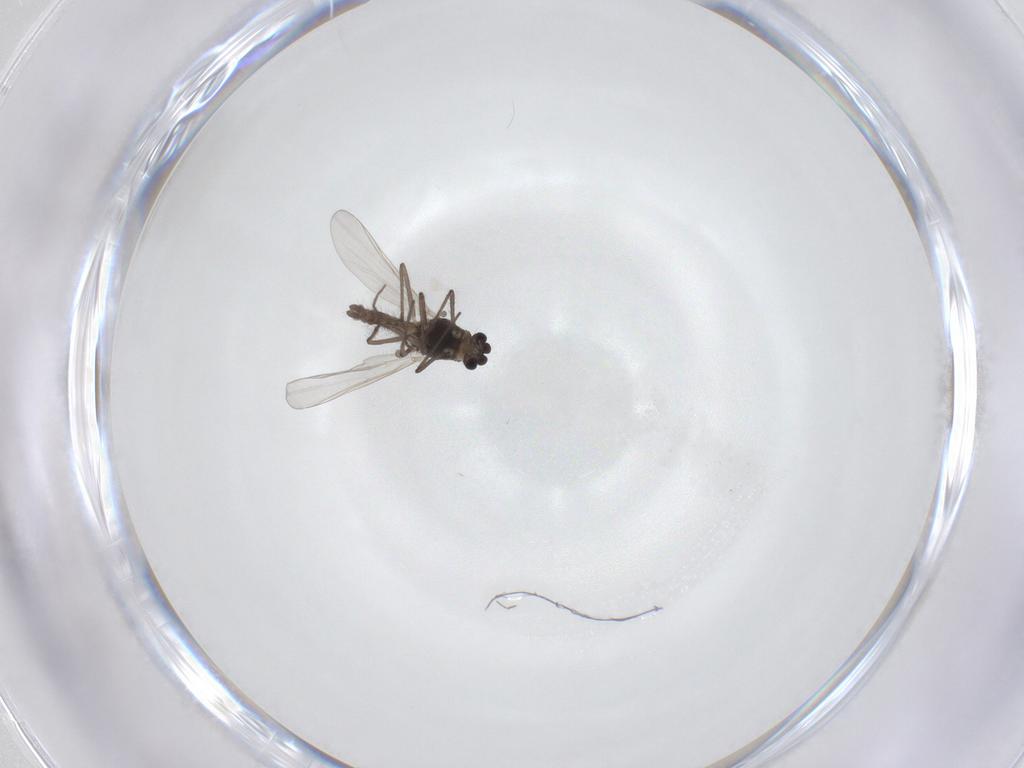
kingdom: Animalia
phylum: Arthropoda
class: Insecta
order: Diptera
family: Chironomidae
